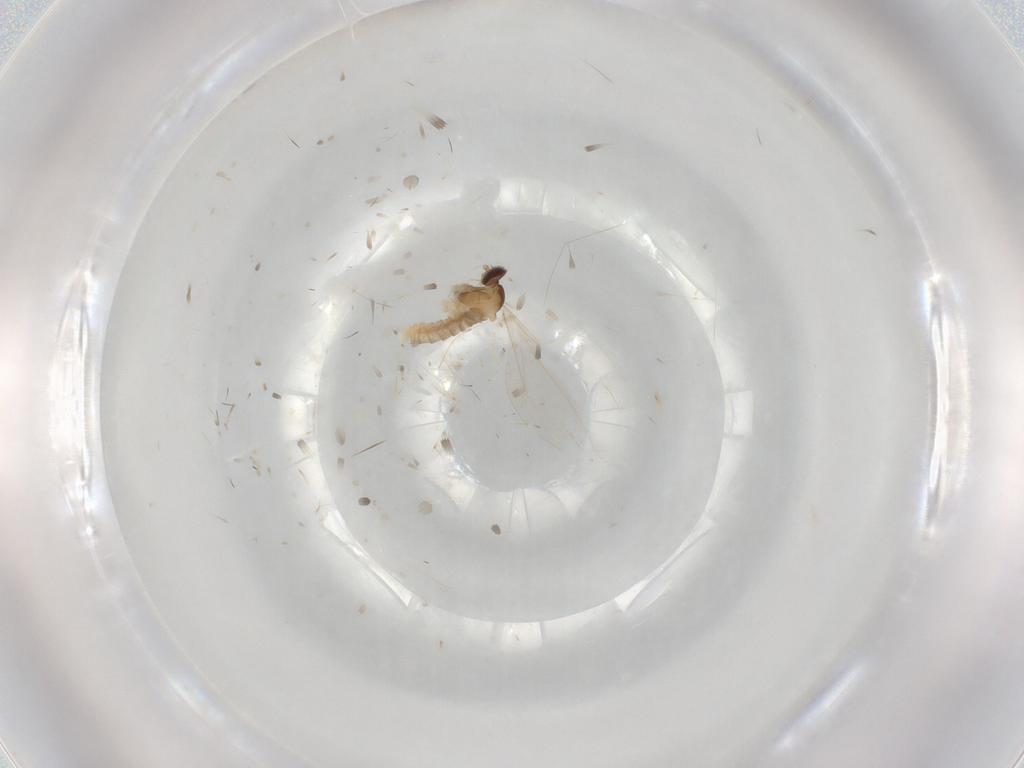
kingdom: Animalia
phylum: Arthropoda
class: Insecta
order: Diptera
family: Cecidomyiidae
